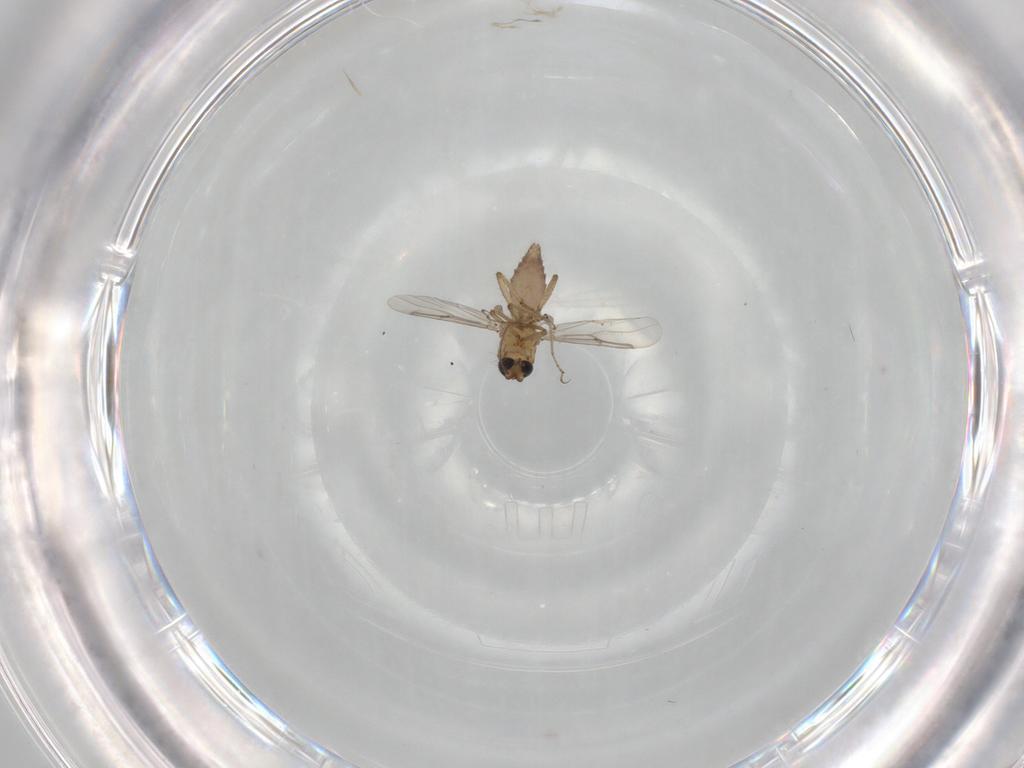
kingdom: Animalia
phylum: Arthropoda
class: Insecta
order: Diptera
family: Ceratopogonidae
